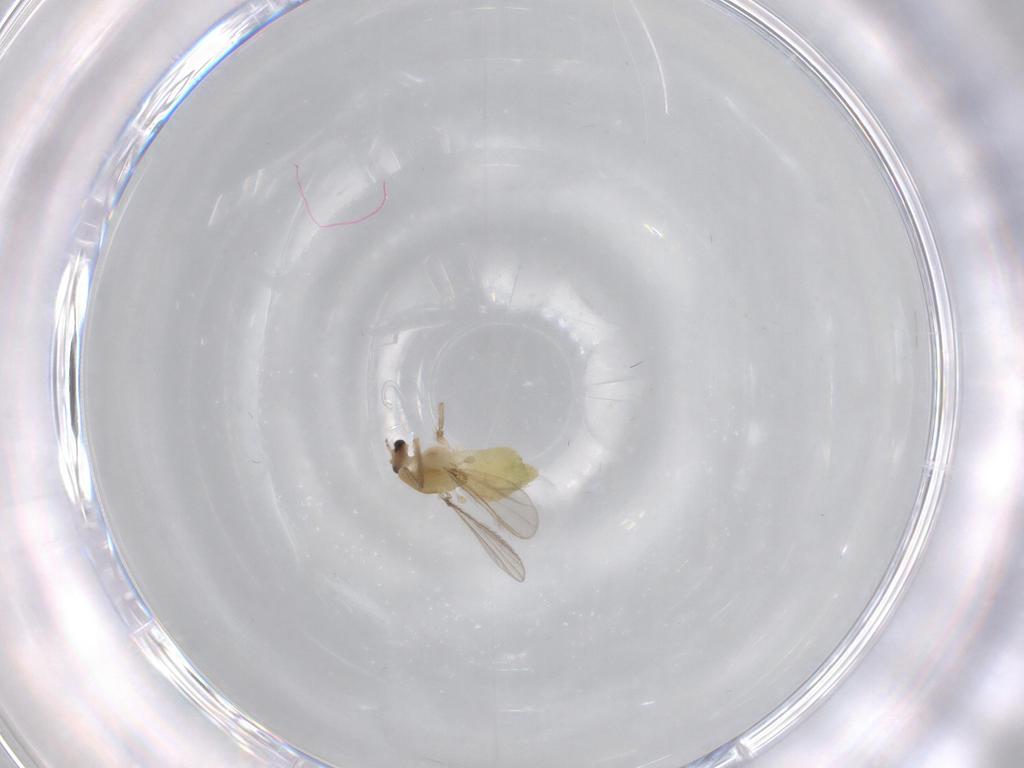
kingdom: Animalia
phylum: Arthropoda
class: Insecta
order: Diptera
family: Chironomidae
